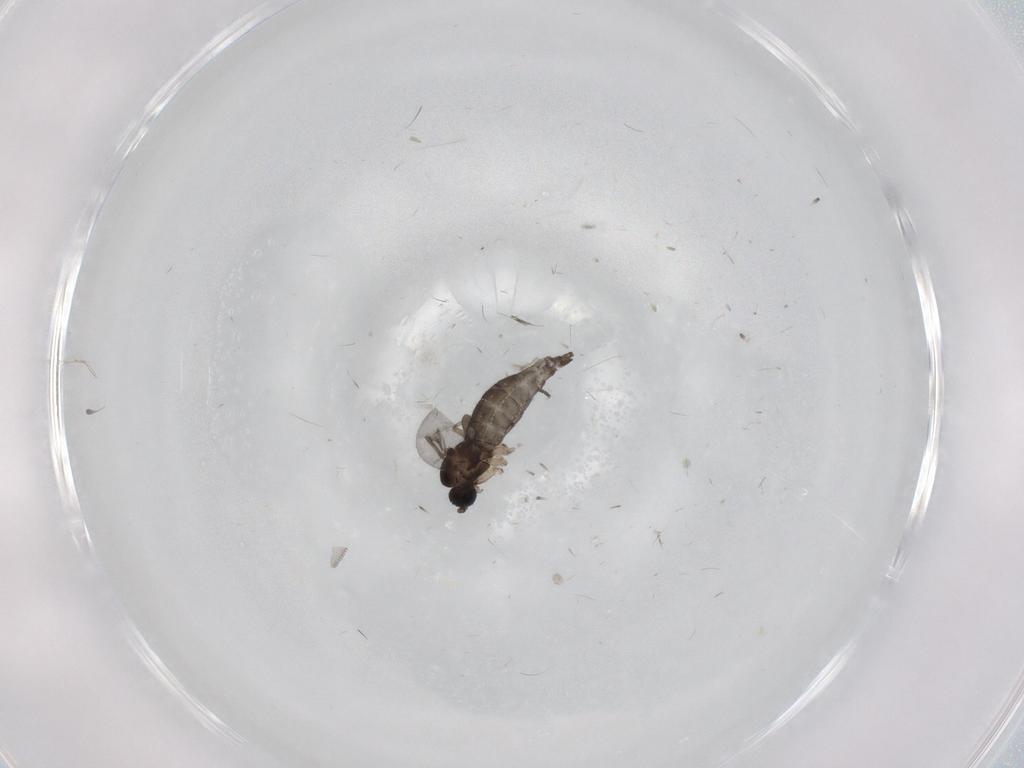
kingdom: Animalia
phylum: Arthropoda
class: Insecta
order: Diptera
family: Sciaridae
